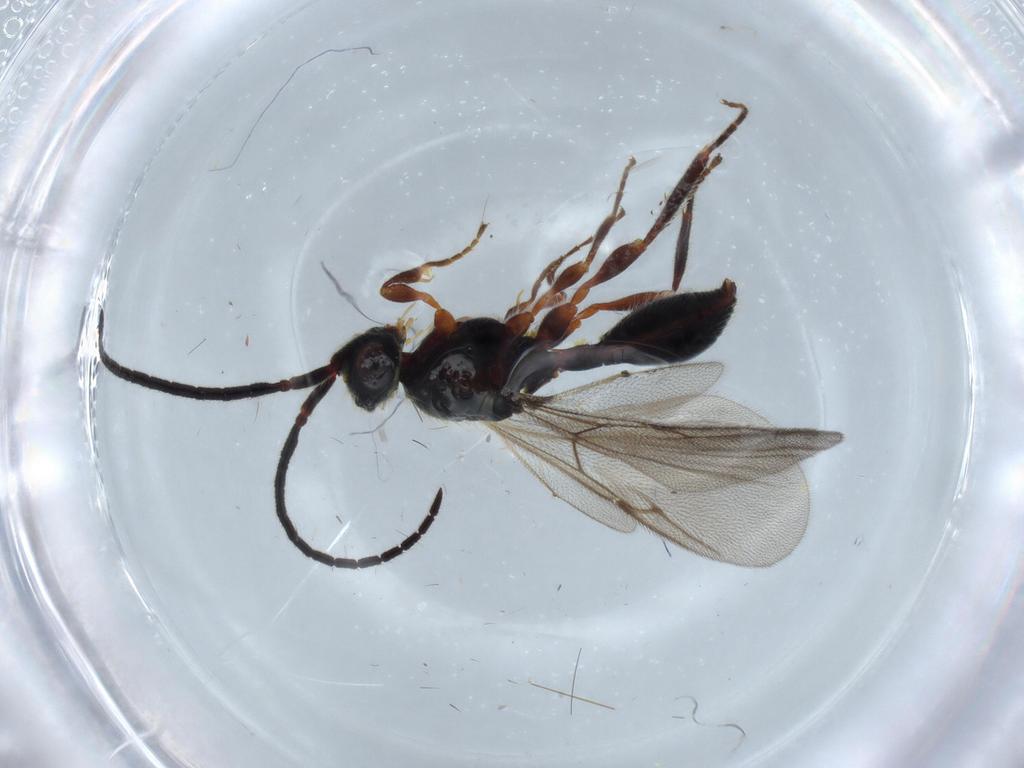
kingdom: Animalia
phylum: Arthropoda
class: Insecta
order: Hymenoptera
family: Diapriidae
